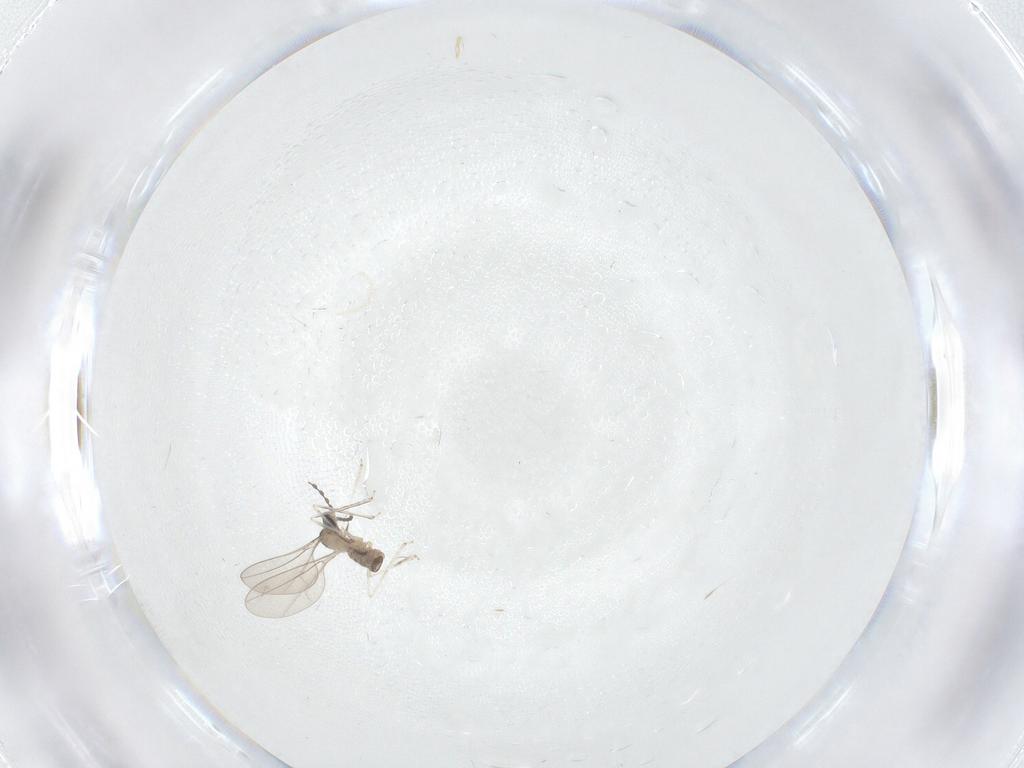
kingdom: Animalia
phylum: Arthropoda
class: Insecta
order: Diptera
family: Cecidomyiidae
